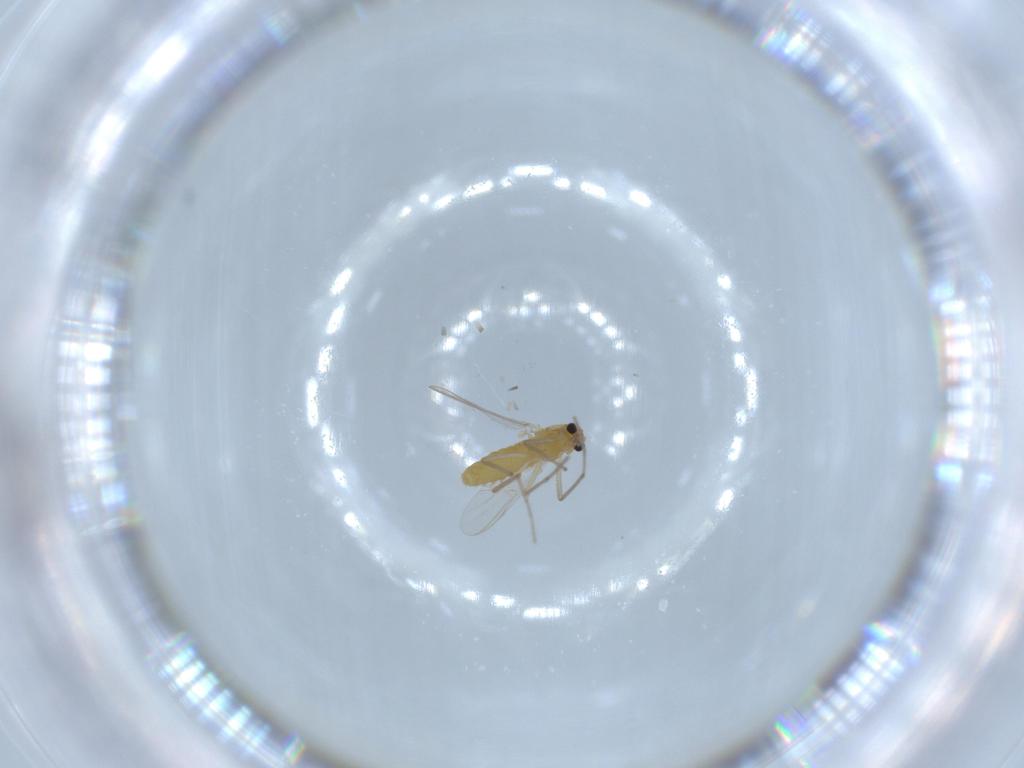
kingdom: Animalia
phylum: Arthropoda
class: Insecta
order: Diptera
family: Chironomidae
